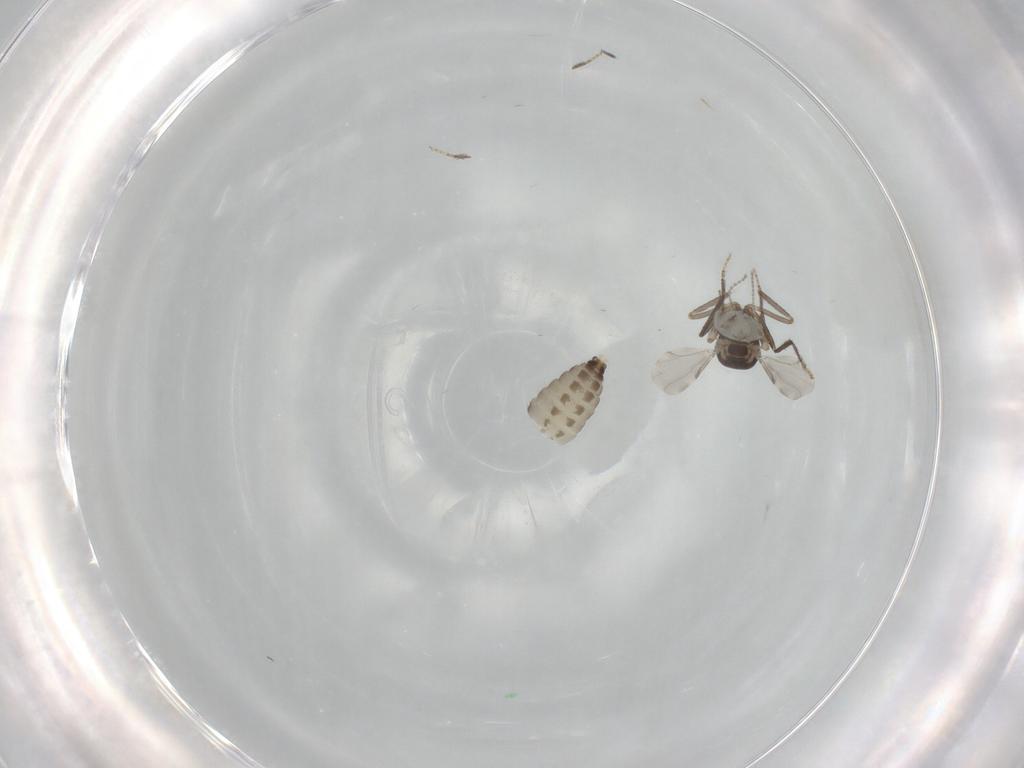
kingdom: Animalia
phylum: Arthropoda
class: Insecta
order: Diptera
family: Ceratopogonidae
